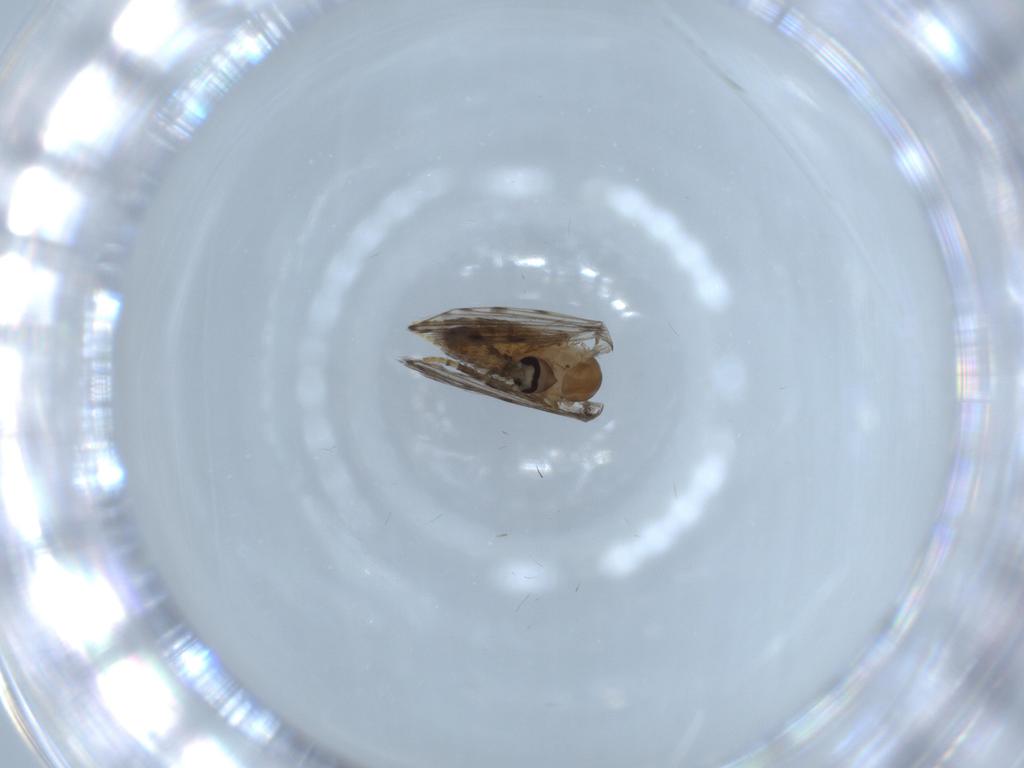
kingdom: Animalia
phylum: Arthropoda
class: Insecta
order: Diptera
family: Psychodidae
